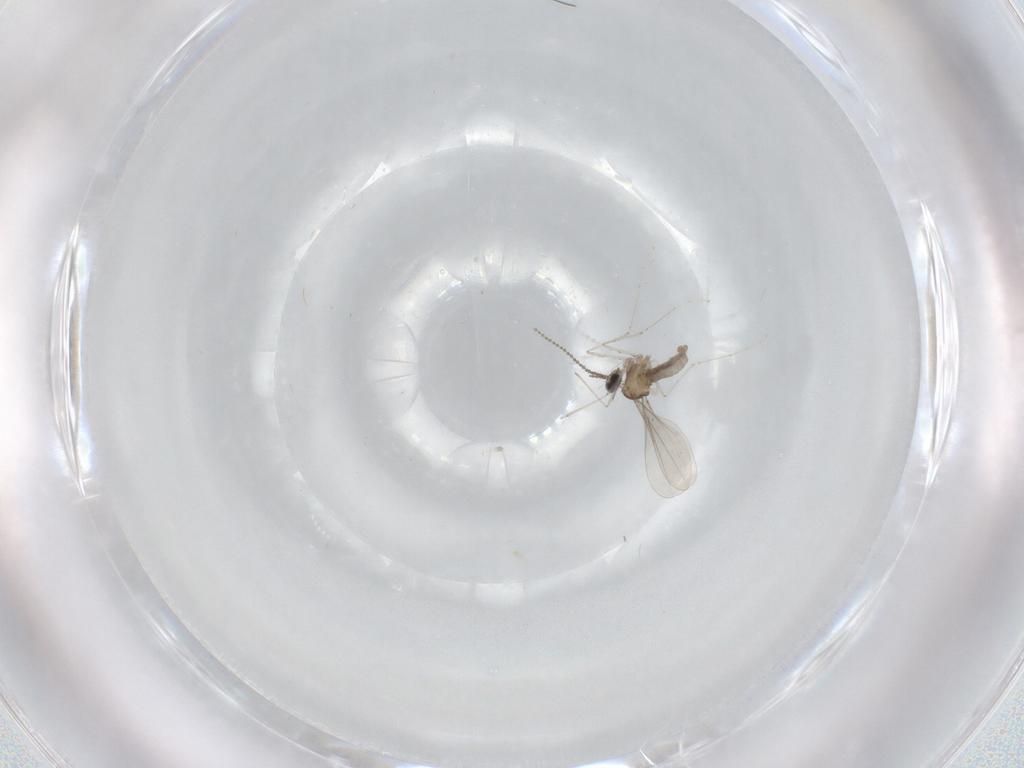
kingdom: Animalia
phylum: Arthropoda
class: Insecta
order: Diptera
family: Cecidomyiidae
